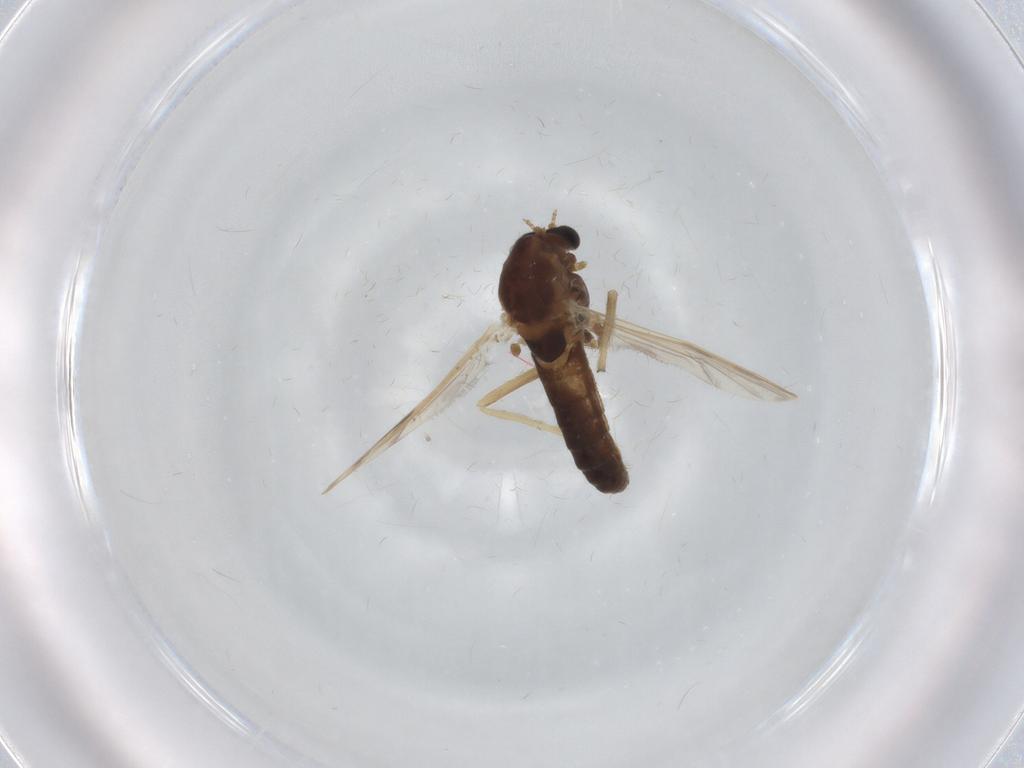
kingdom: Animalia
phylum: Arthropoda
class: Insecta
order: Diptera
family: Chironomidae
